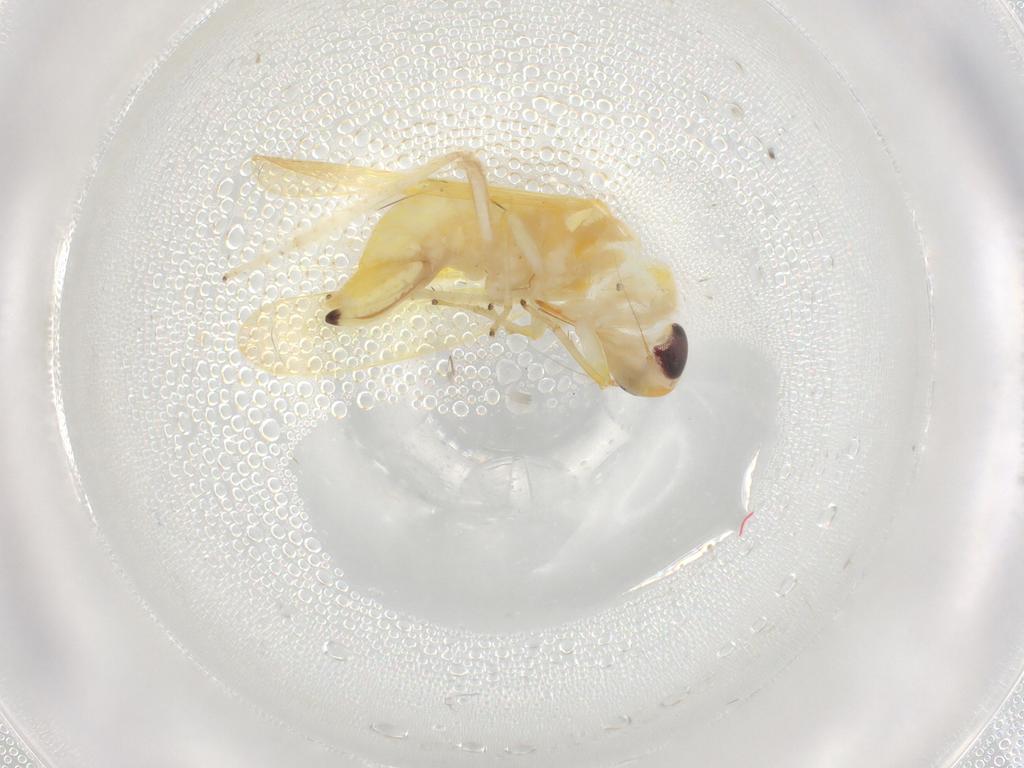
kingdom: Animalia
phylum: Arthropoda
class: Insecta
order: Hemiptera
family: Cicadellidae
